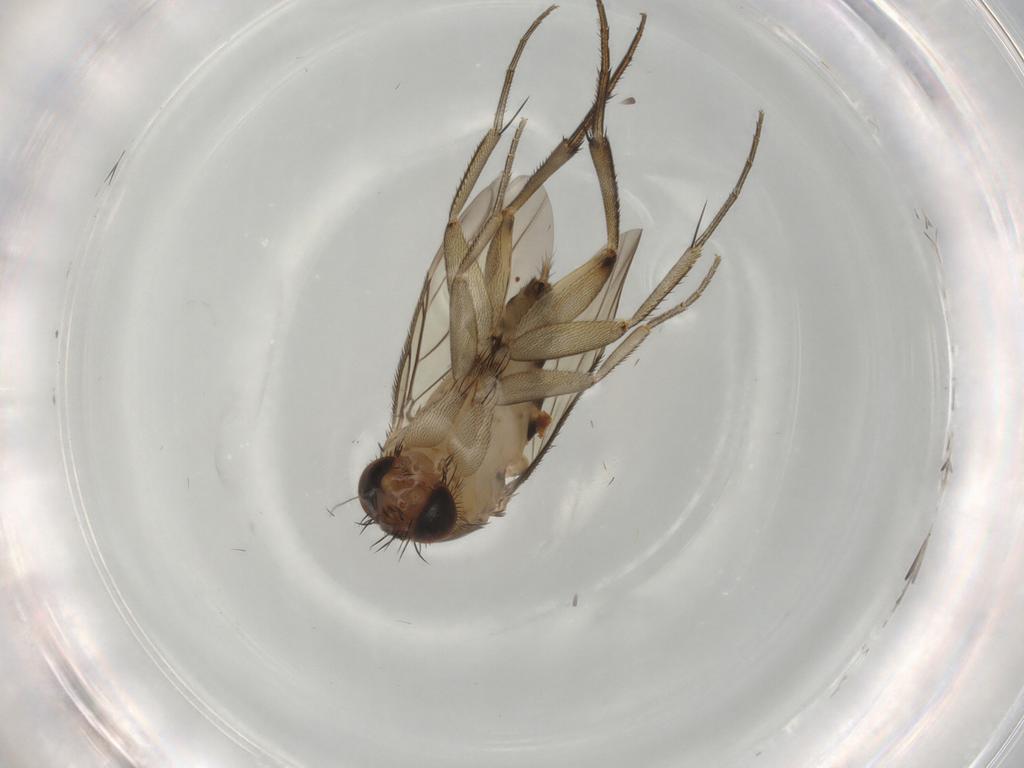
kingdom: Animalia
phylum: Arthropoda
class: Insecta
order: Diptera
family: Phoridae
